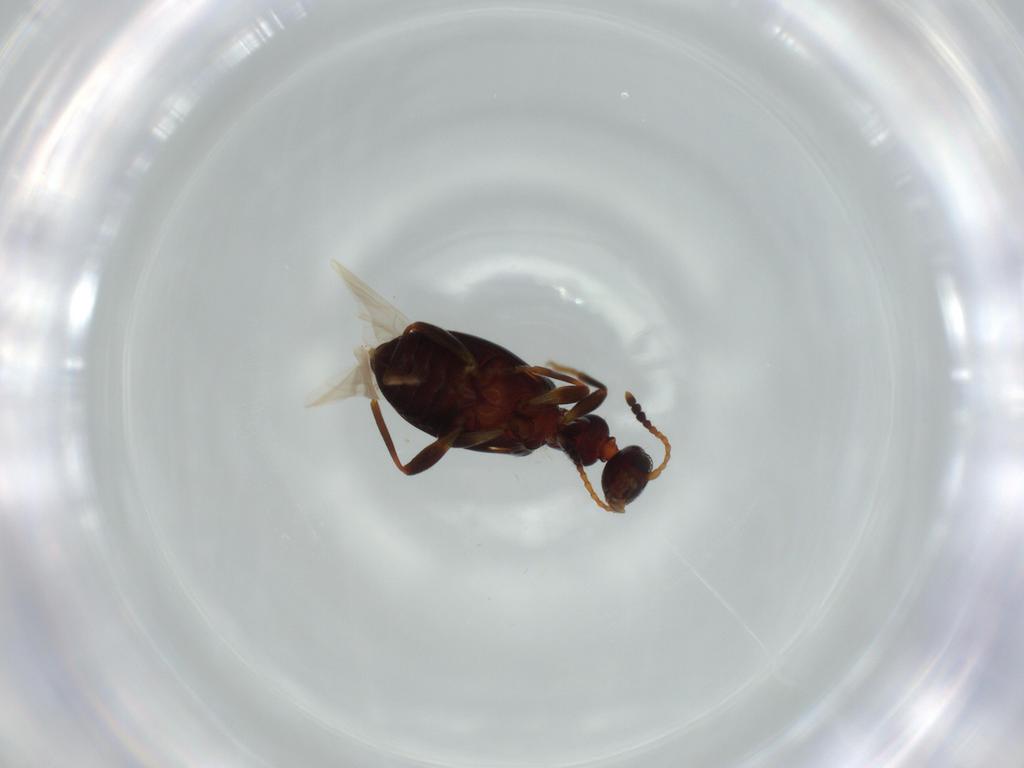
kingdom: Animalia
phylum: Arthropoda
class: Insecta
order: Coleoptera
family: Anthicidae
